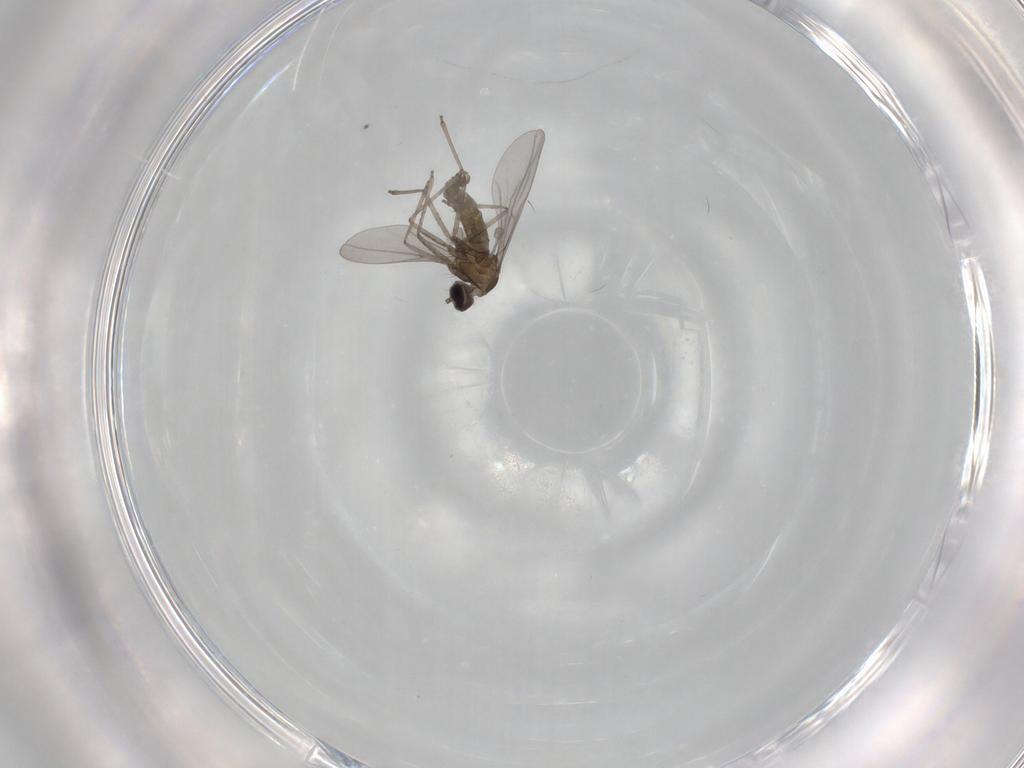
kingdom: Animalia
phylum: Arthropoda
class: Insecta
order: Diptera
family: Cecidomyiidae
